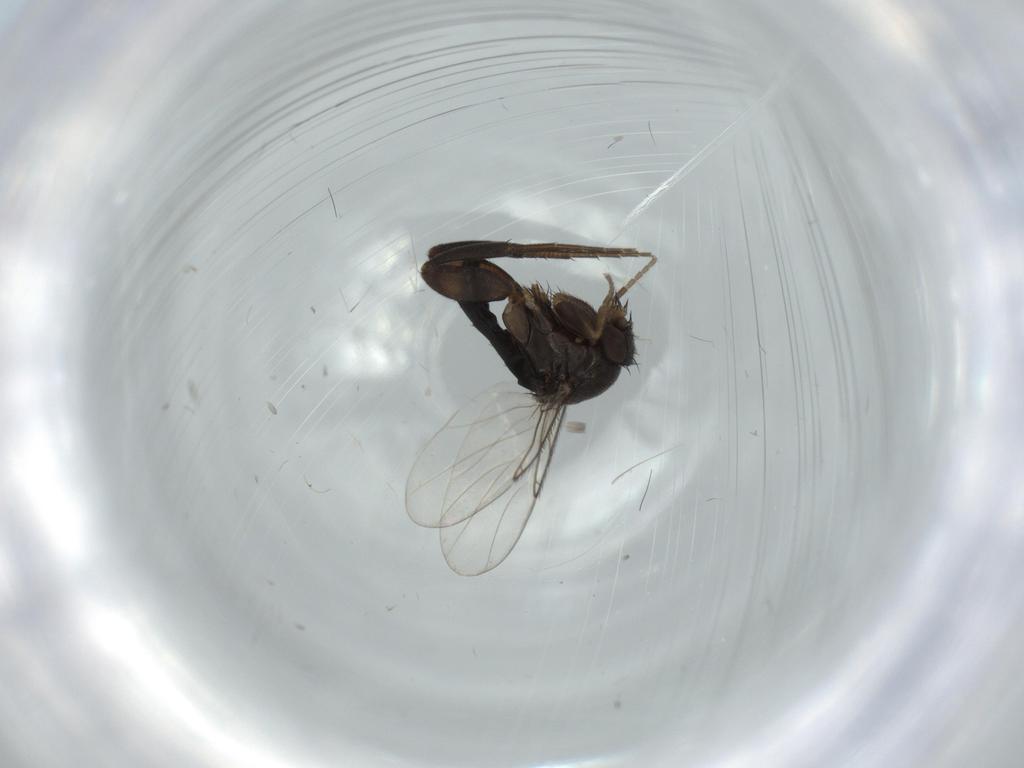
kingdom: Animalia
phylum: Arthropoda
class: Insecta
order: Diptera
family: Phoridae
